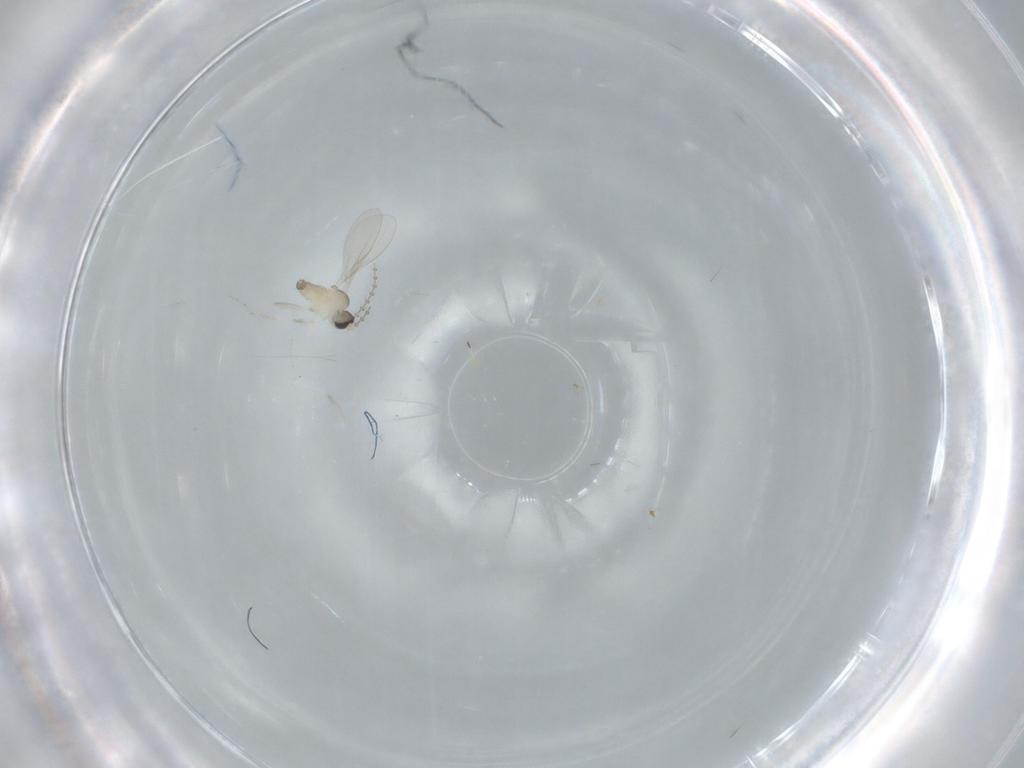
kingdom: Animalia
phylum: Arthropoda
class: Insecta
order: Diptera
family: Cecidomyiidae
